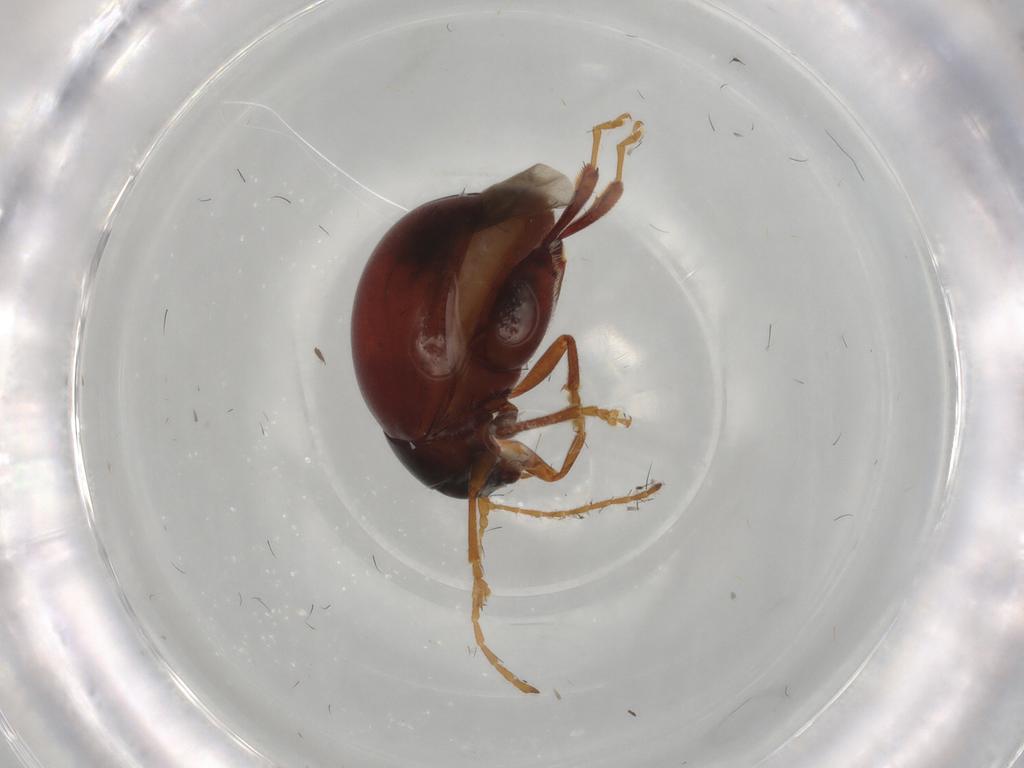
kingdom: Animalia
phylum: Arthropoda
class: Insecta
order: Coleoptera
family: Chrysomelidae
